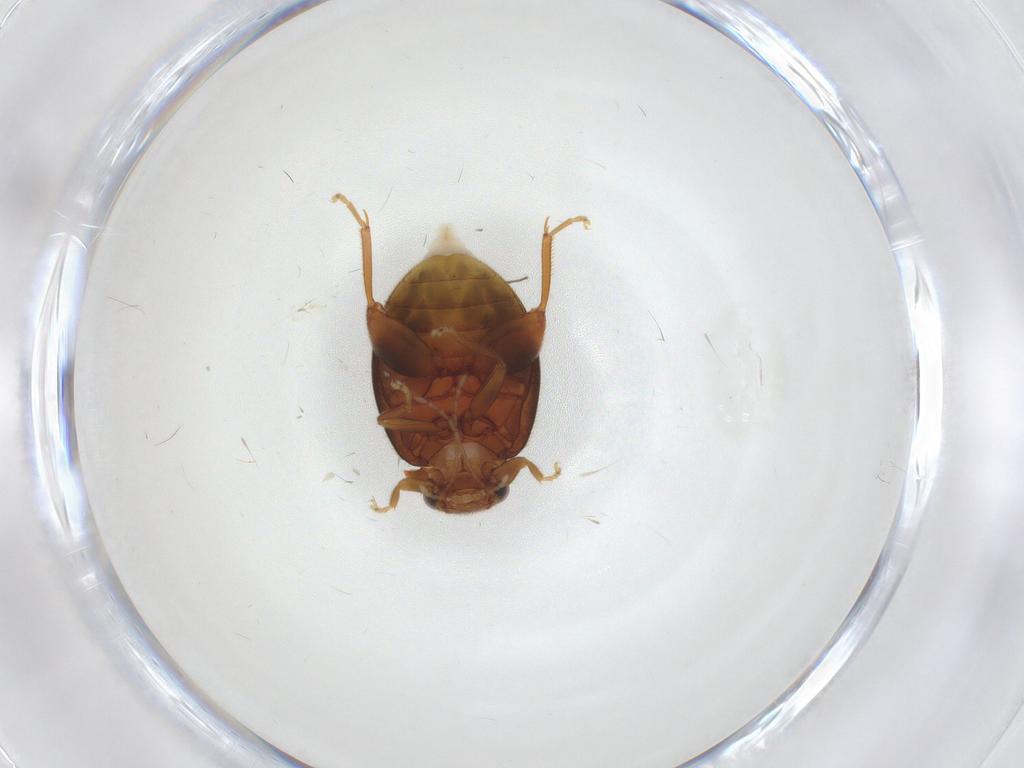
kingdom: Animalia
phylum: Arthropoda
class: Insecta
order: Coleoptera
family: Scirtidae
